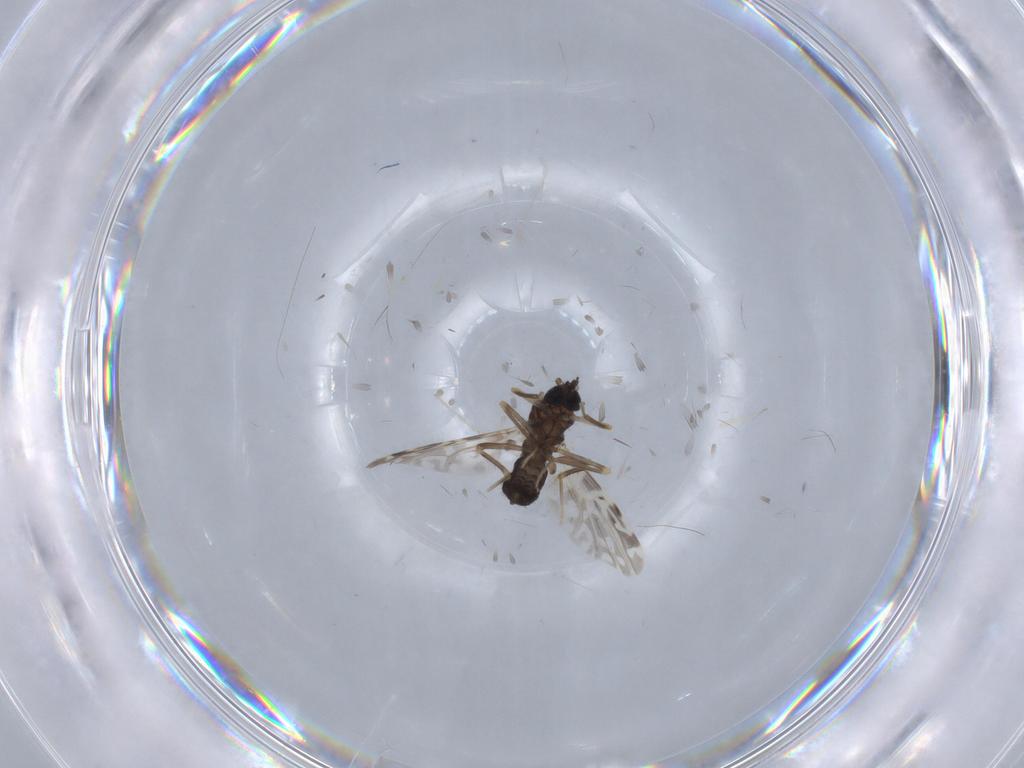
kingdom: Animalia
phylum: Arthropoda
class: Insecta
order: Diptera
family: Ceratopogonidae
